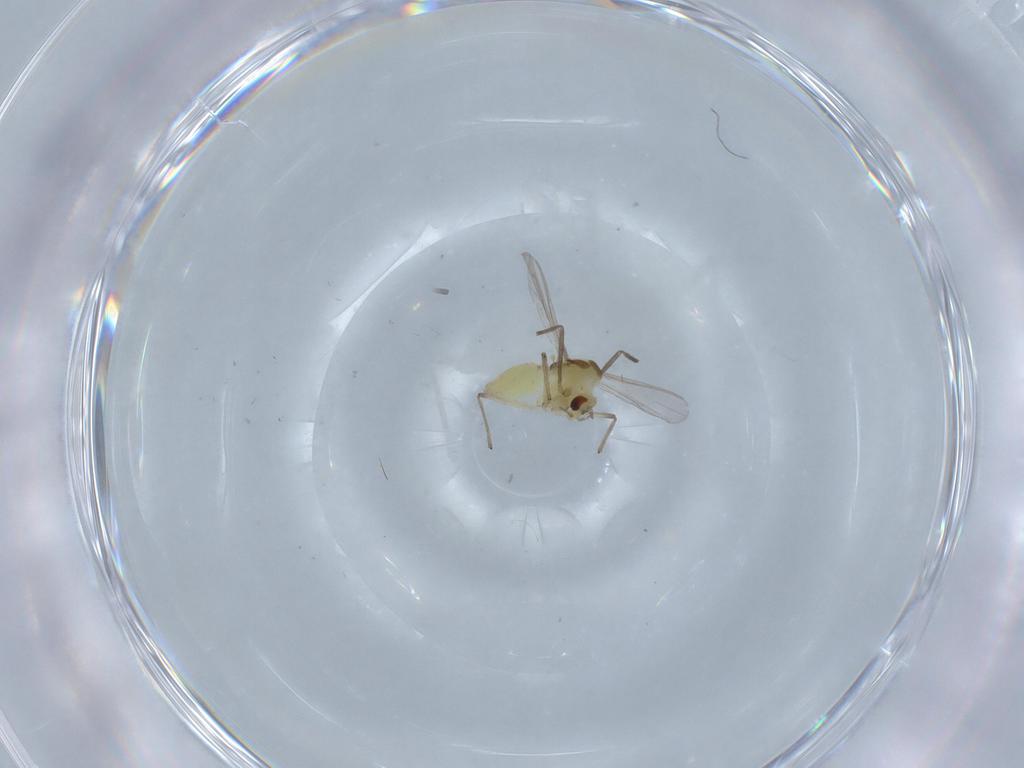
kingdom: Animalia
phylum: Arthropoda
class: Insecta
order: Diptera
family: Chironomidae
